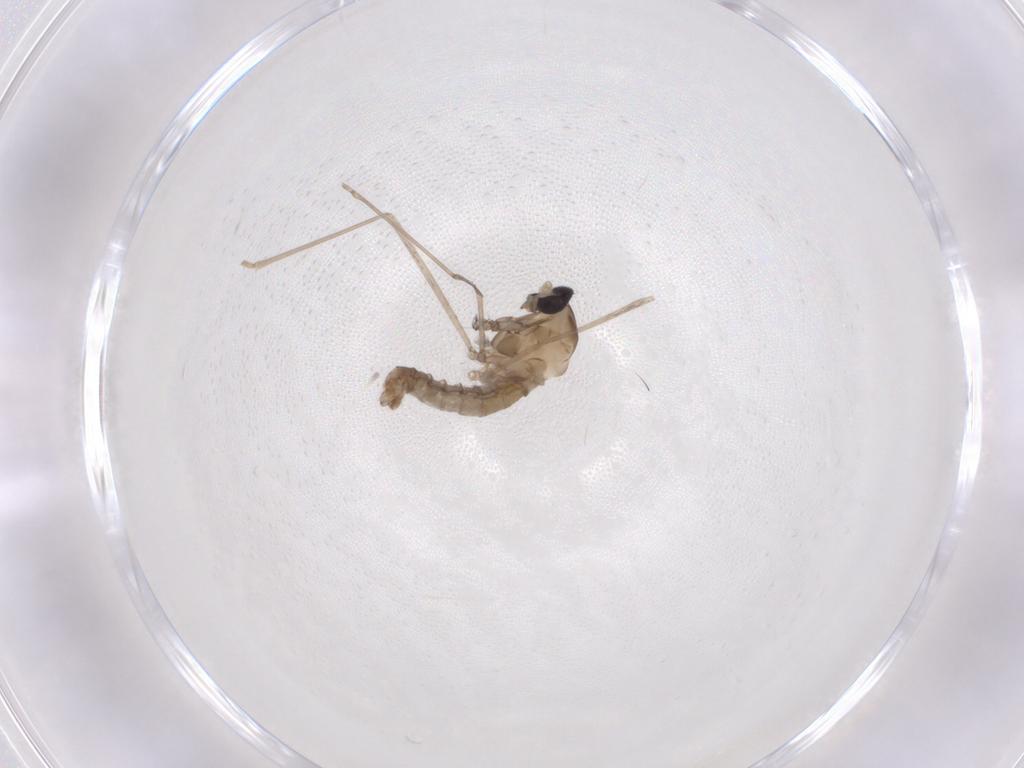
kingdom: Animalia
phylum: Arthropoda
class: Insecta
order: Diptera
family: Cecidomyiidae
